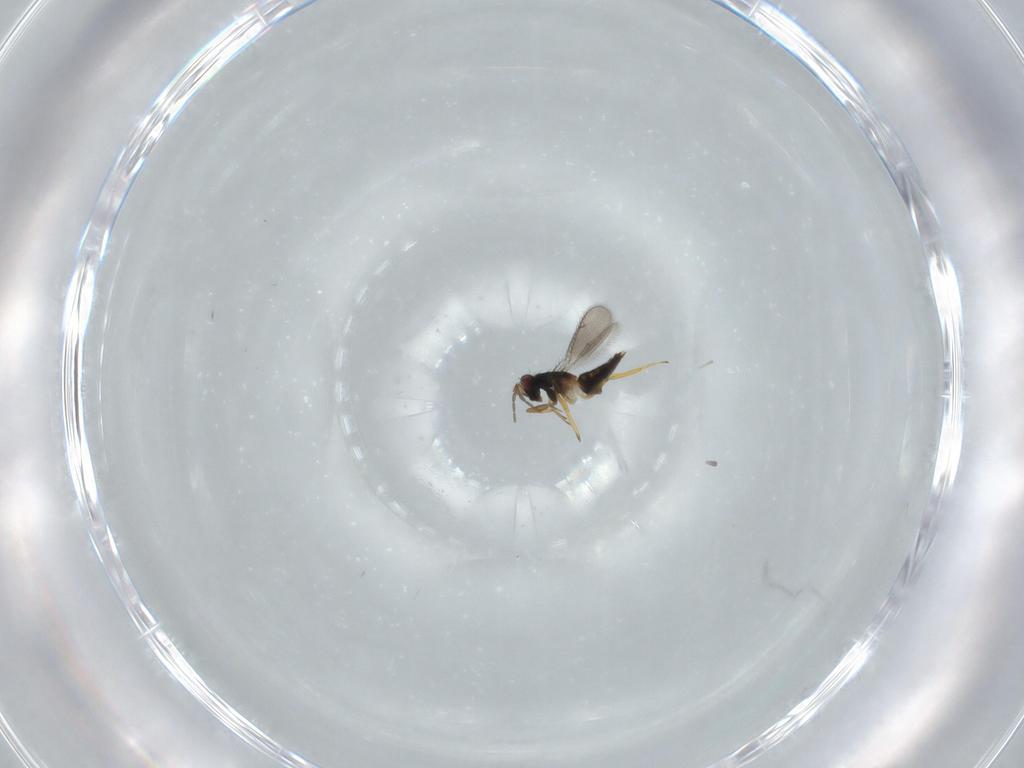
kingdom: Animalia
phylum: Arthropoda
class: Insecta
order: Hymenoptera
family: Eulophidae
